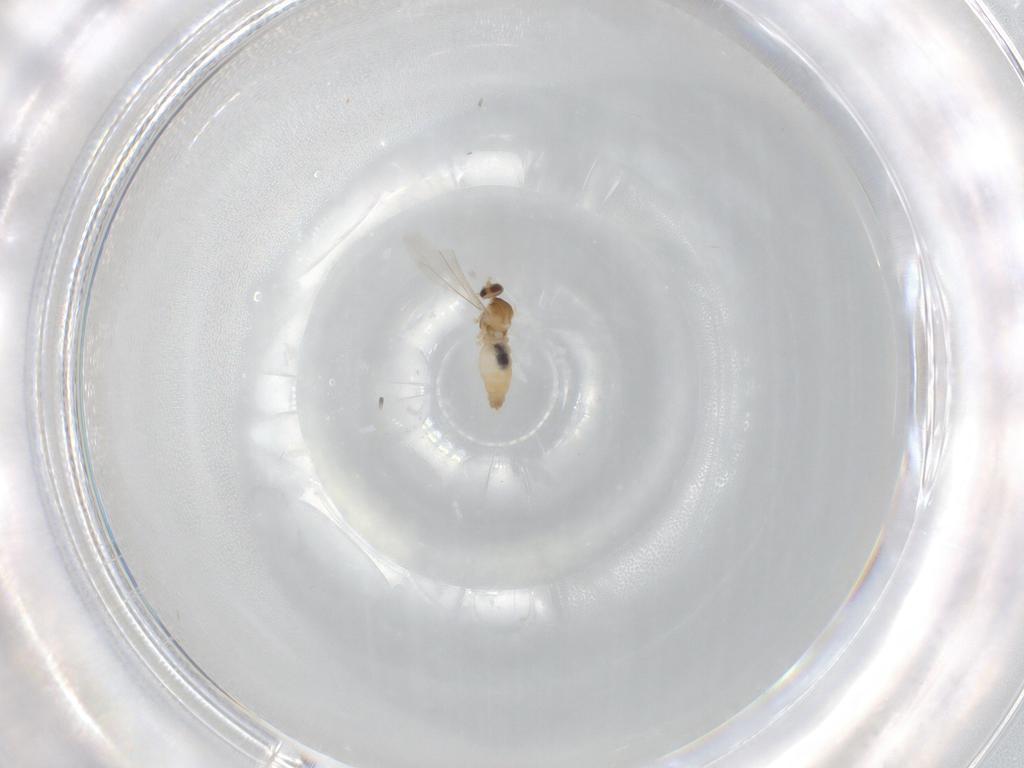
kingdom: Animalia
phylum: Arthropoda
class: Insecta
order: Diptera
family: Cecidomyiidae
